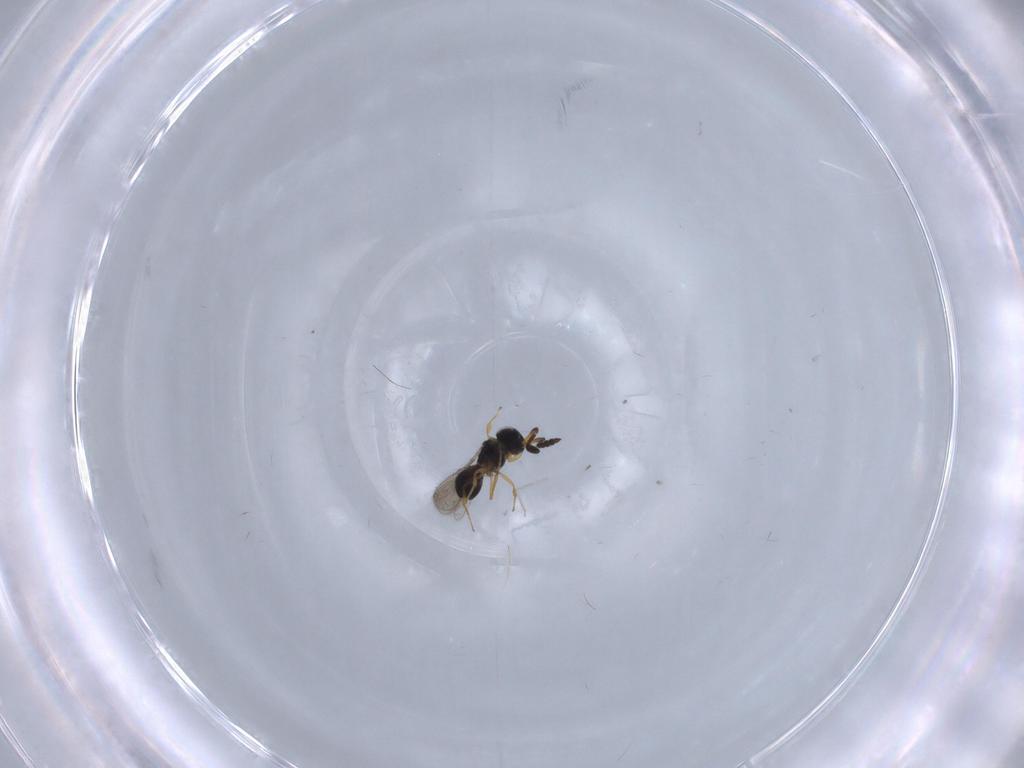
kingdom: Animalia
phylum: Arthropoda
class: Insecta
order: Hymenoptera
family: Scelionidae
